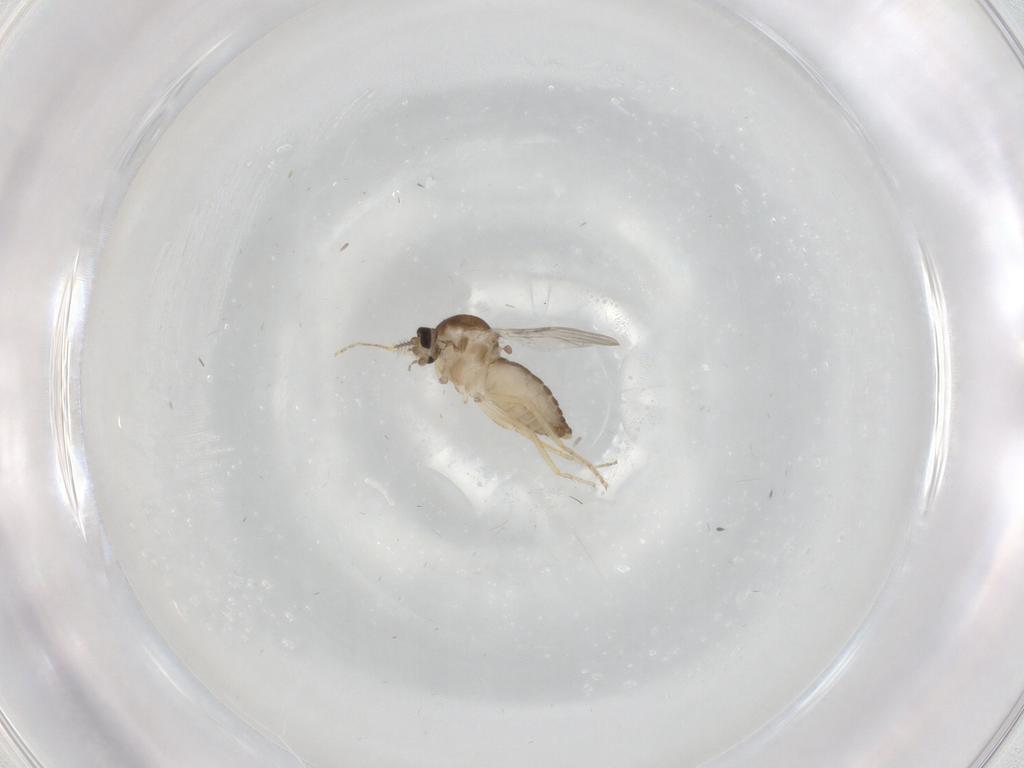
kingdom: Animalia
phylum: Arthropoda
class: Insecta
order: Diptera
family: Ceratopogonidae
